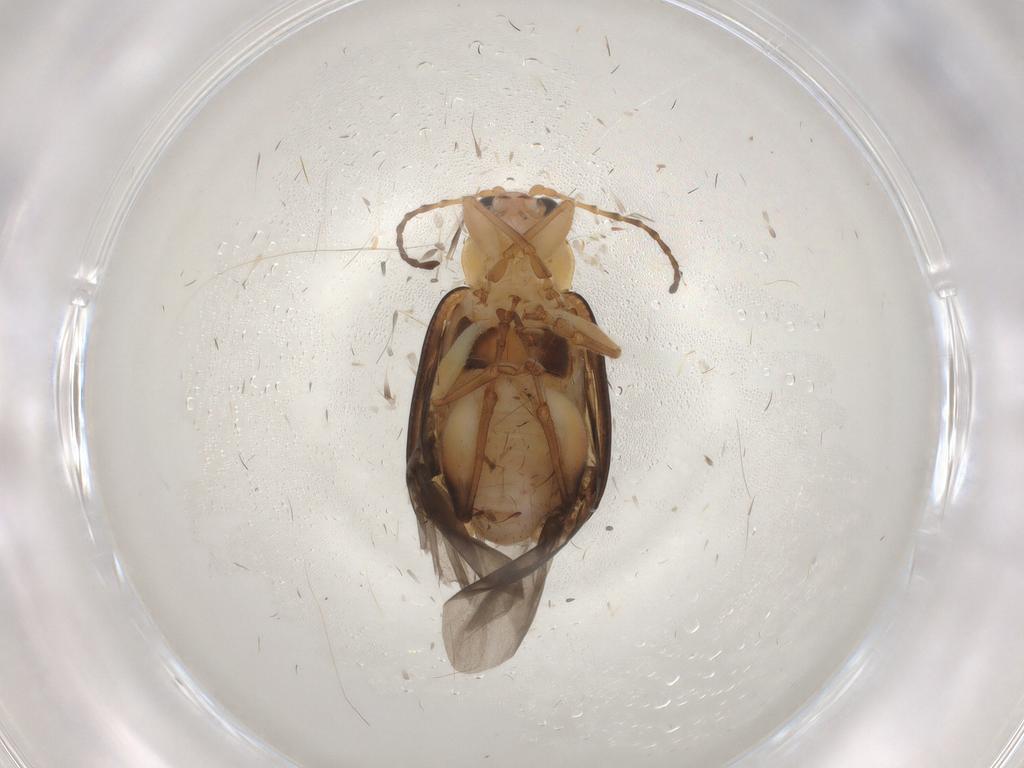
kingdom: Animalia
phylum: Arthropoda
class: Insecta
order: Coleoptera
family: Chrysomelidae
